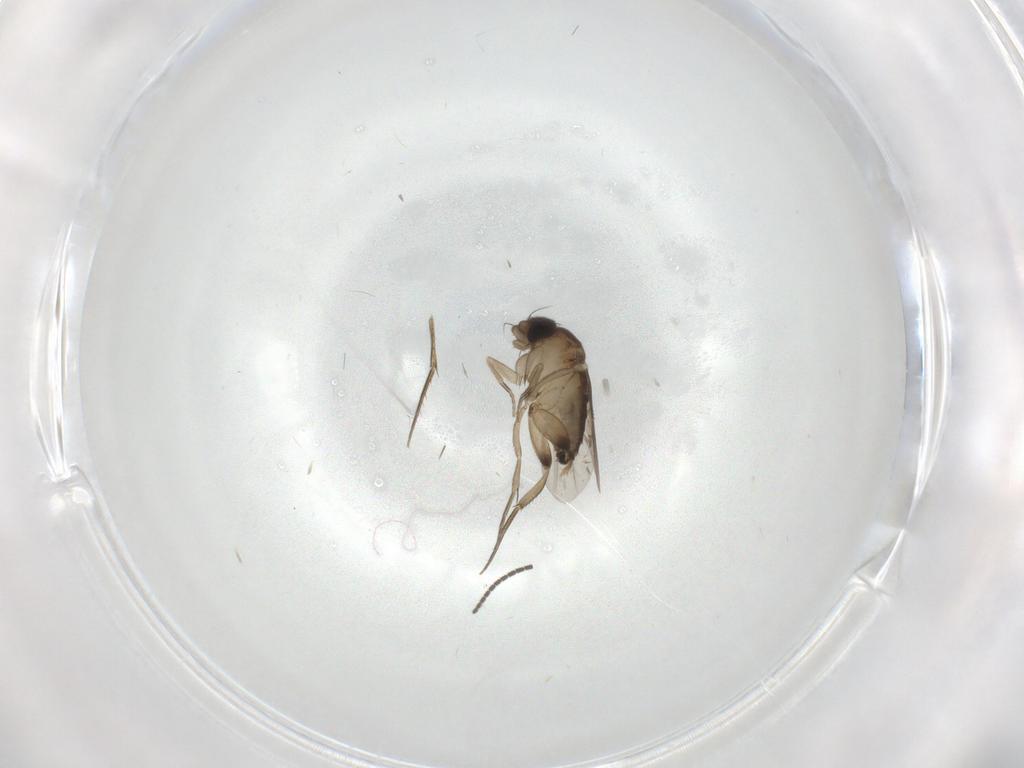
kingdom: Animalia
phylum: Arthropoda
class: Insecta
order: Diptera
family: Phoridae
